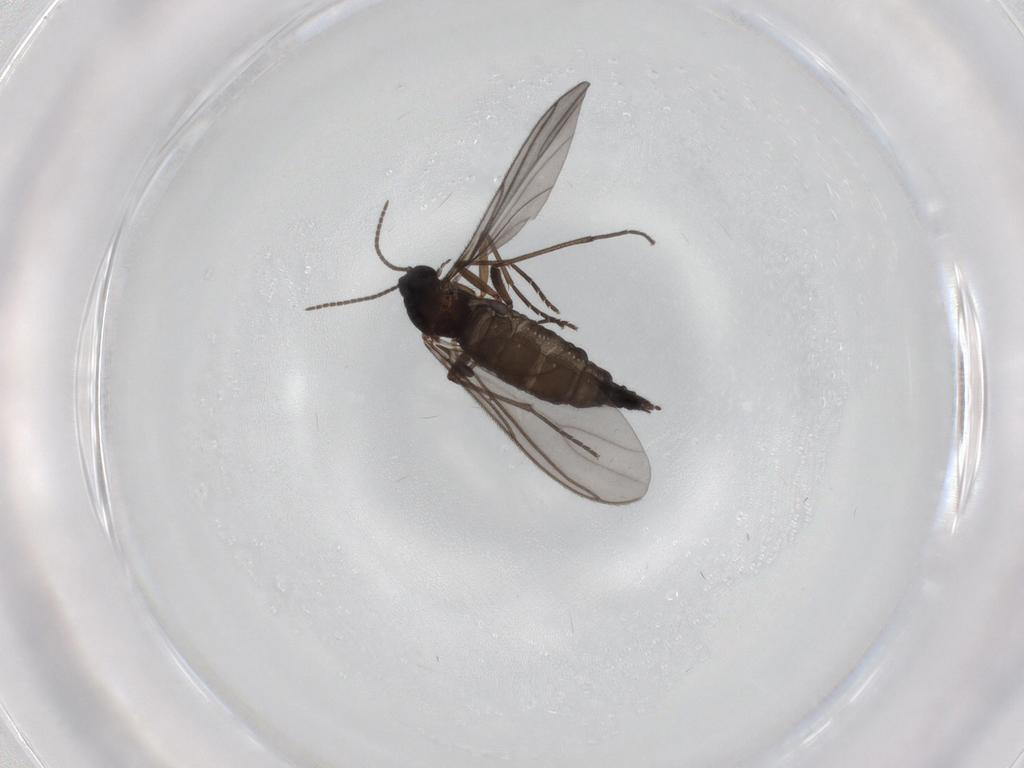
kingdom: Animalia
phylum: Arthropoda
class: Insecta
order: Diptera
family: Sciaridae
